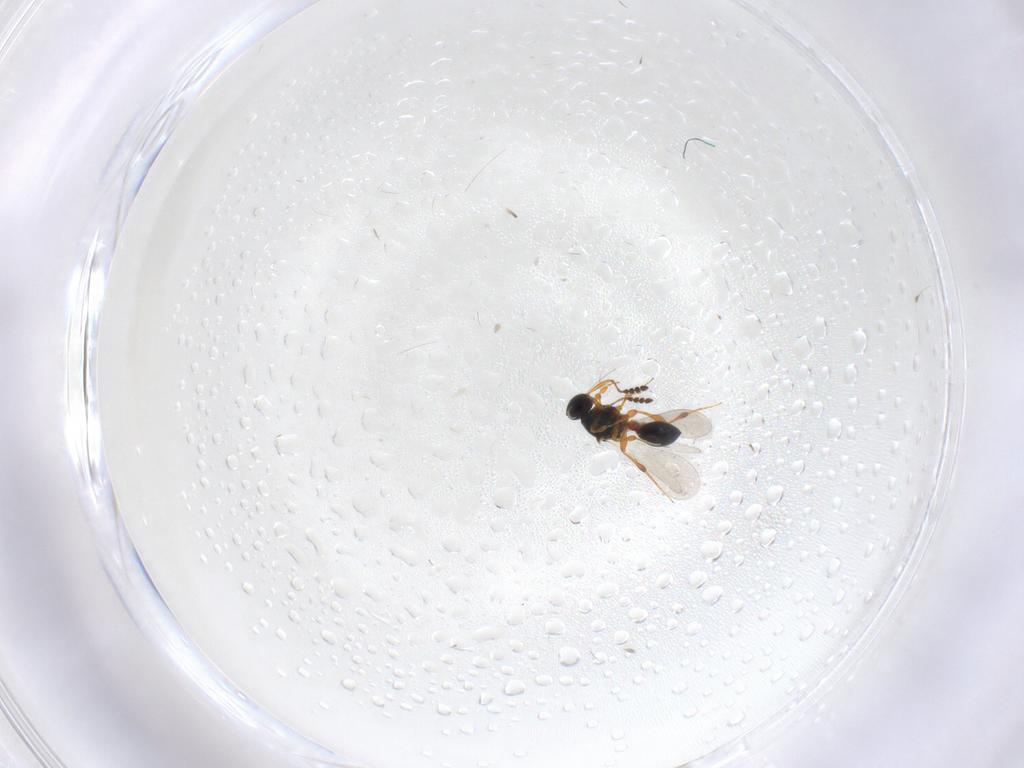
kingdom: Animalia
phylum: Arthropoda
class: Insecta
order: Hymenoptera
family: Platygastridae
